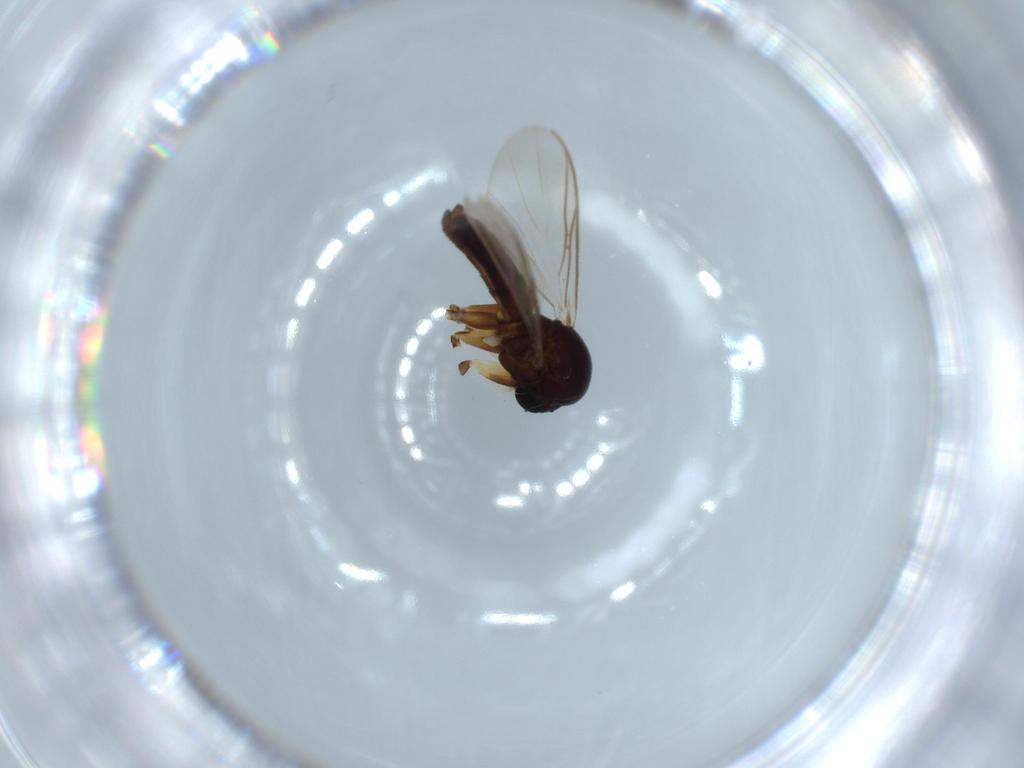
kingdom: Animalia
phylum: Arthropoda
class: Insecta
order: Diptera
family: Mycetophilidae
